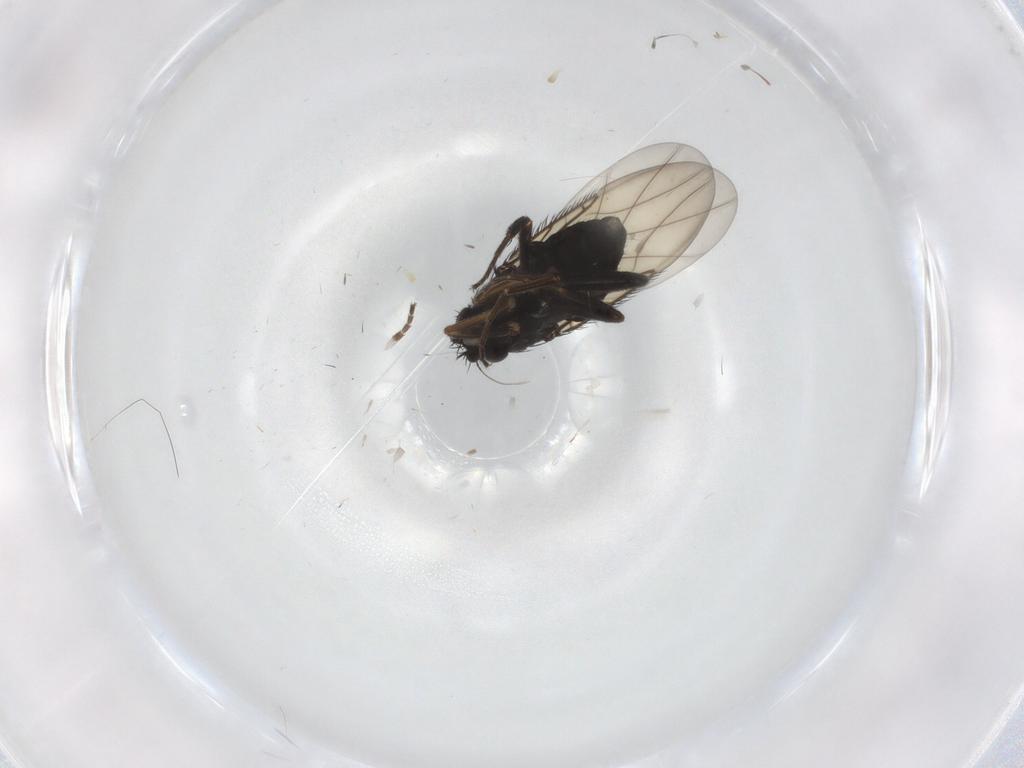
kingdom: Animalia
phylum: Arthropoda
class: Insecta
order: Diptera
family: Phoridae
